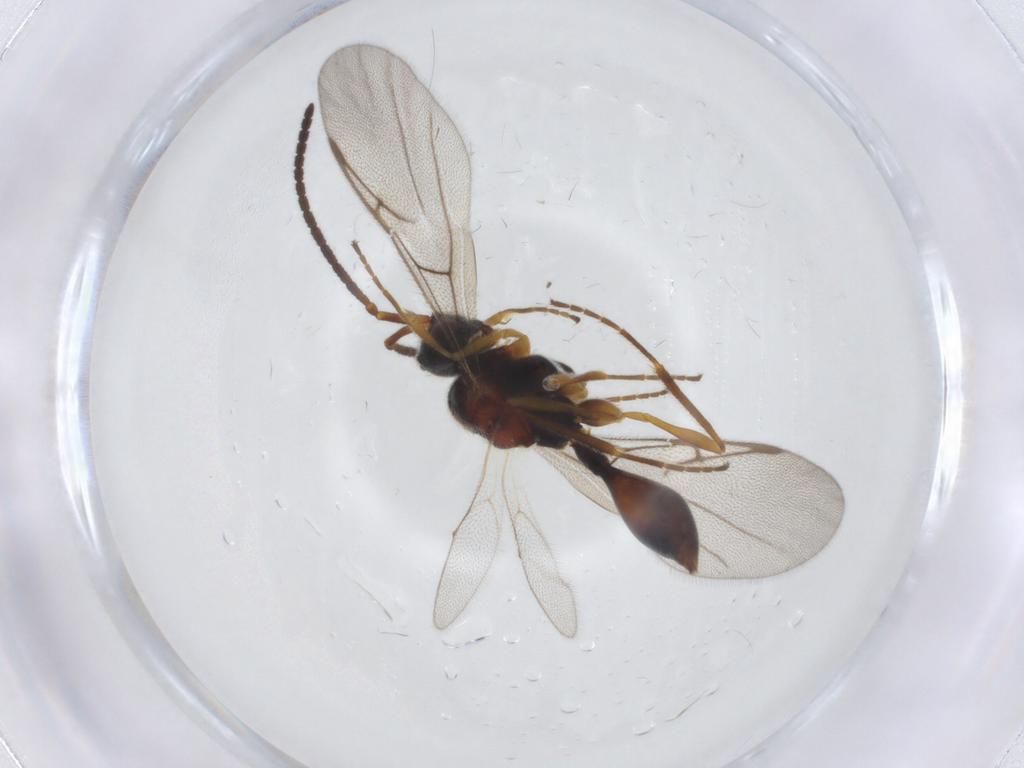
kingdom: Animalia
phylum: Arthropoda
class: Insecta
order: Hymenoptera
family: Diapriidae
